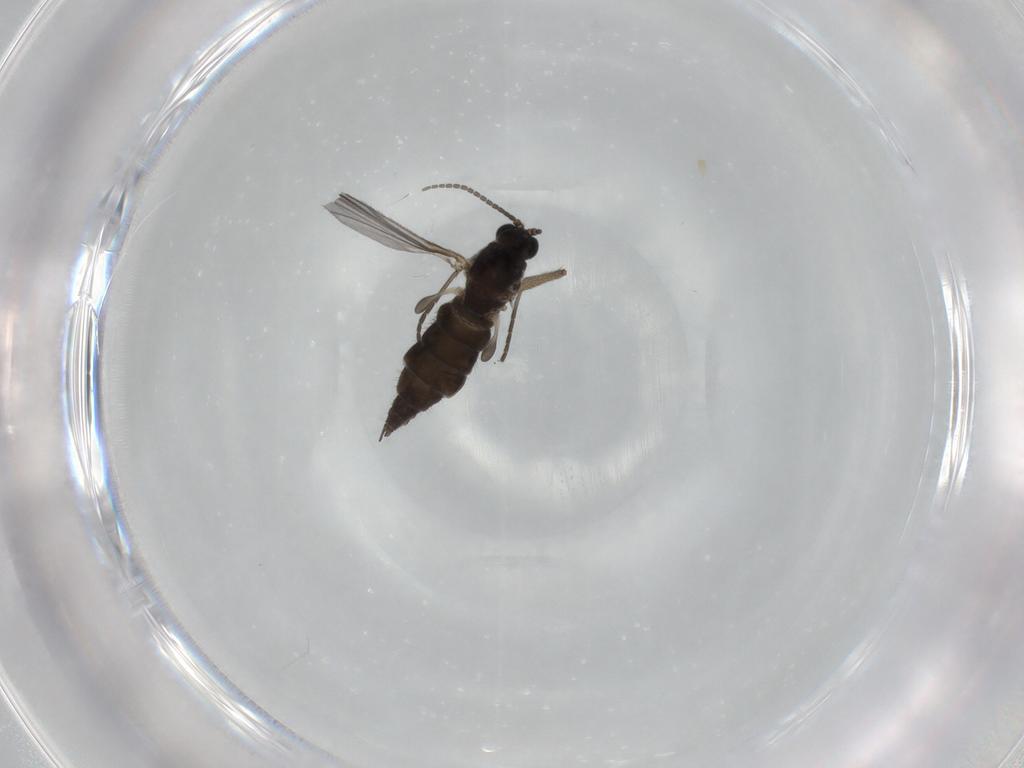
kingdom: Animalia
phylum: Arthropoda
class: Insecta
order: Diptera
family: Sciaridae
